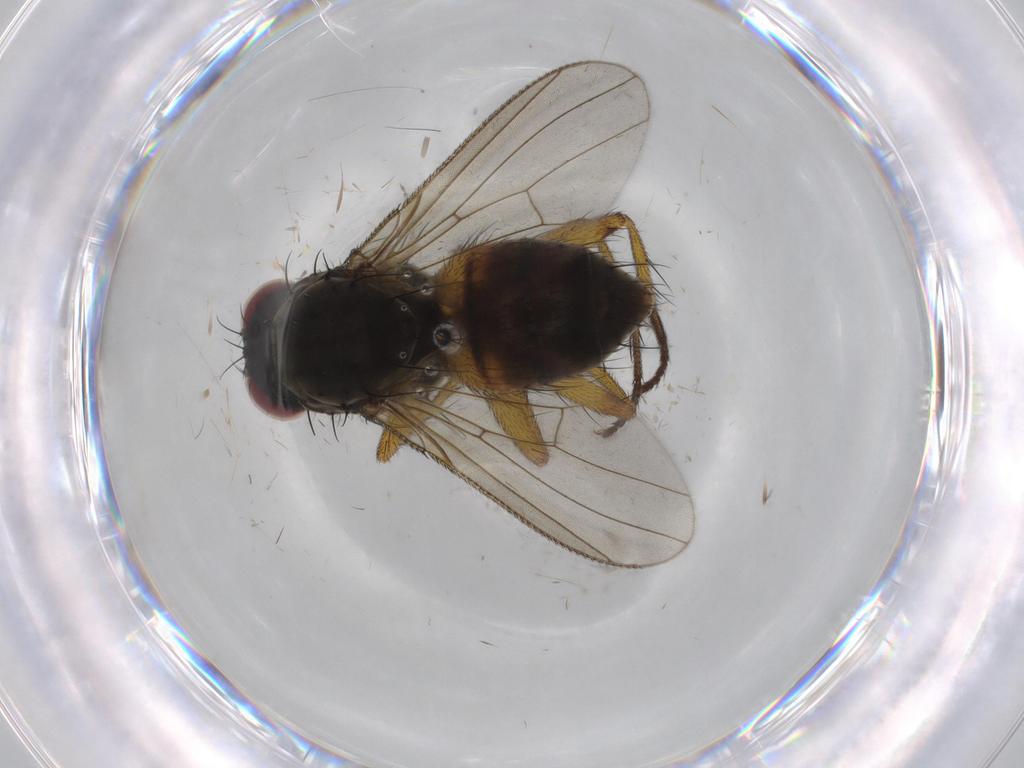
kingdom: Animalia
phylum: Arthropoda
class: Insecta
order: Diptera
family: Muscidae
